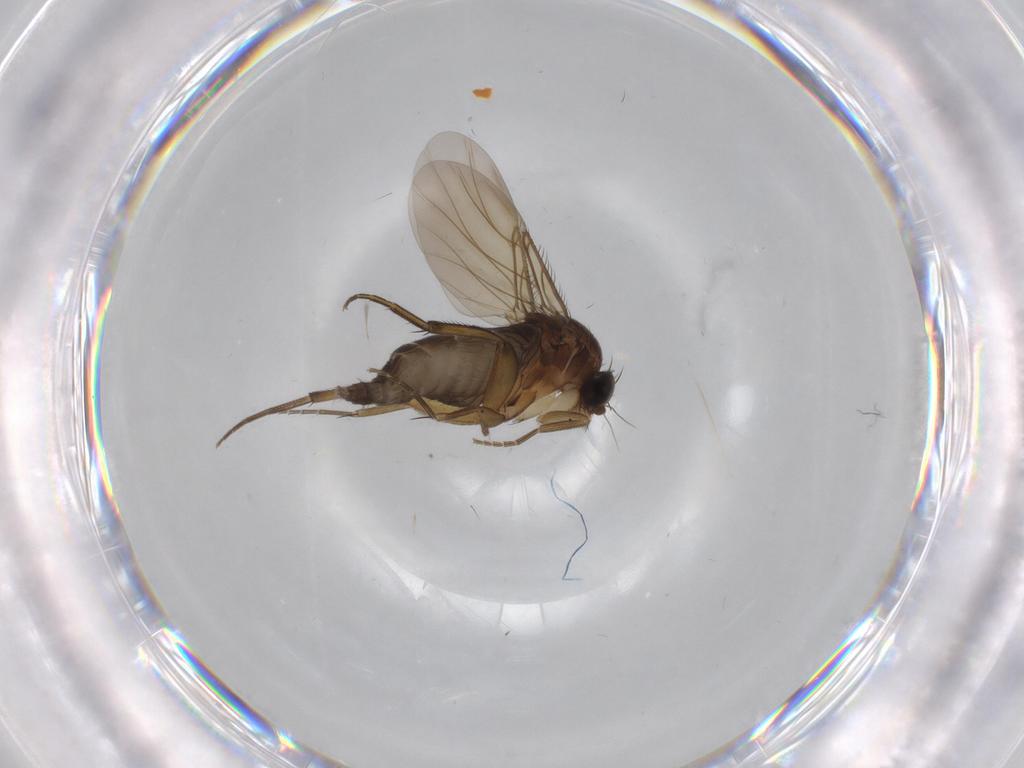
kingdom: Animalia
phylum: Arthropoda
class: Insecta
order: Diptera
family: Phoridae
